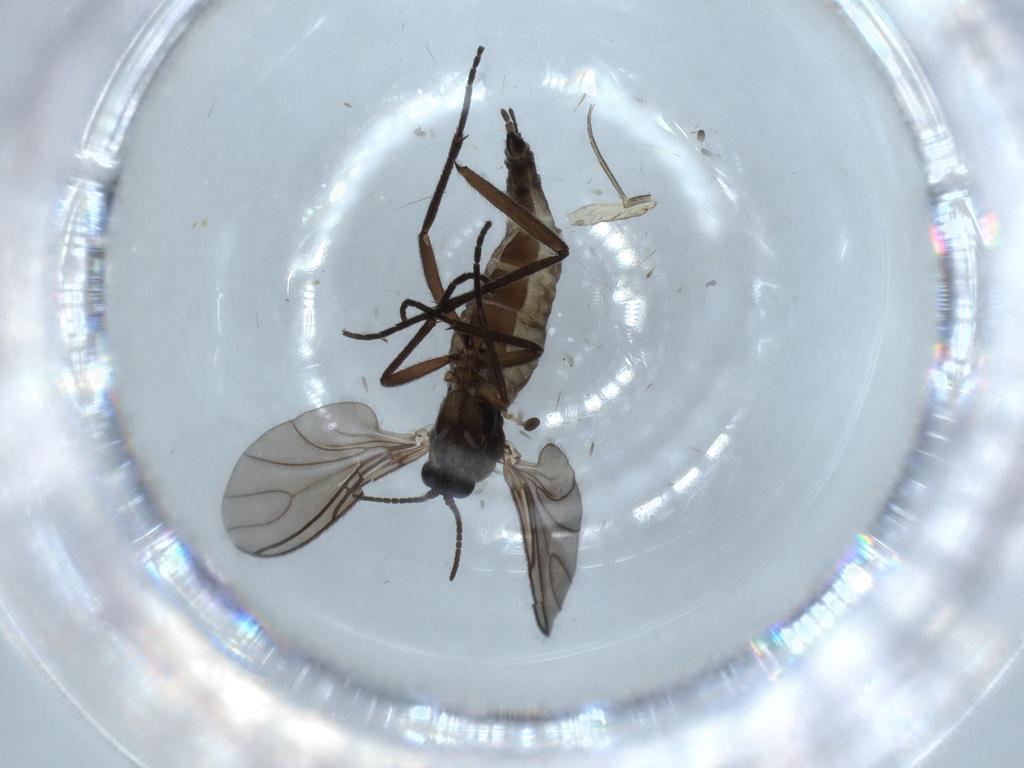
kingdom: Animalia
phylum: Arthropoda
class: Insecta
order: Diptera
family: Sciaridae
